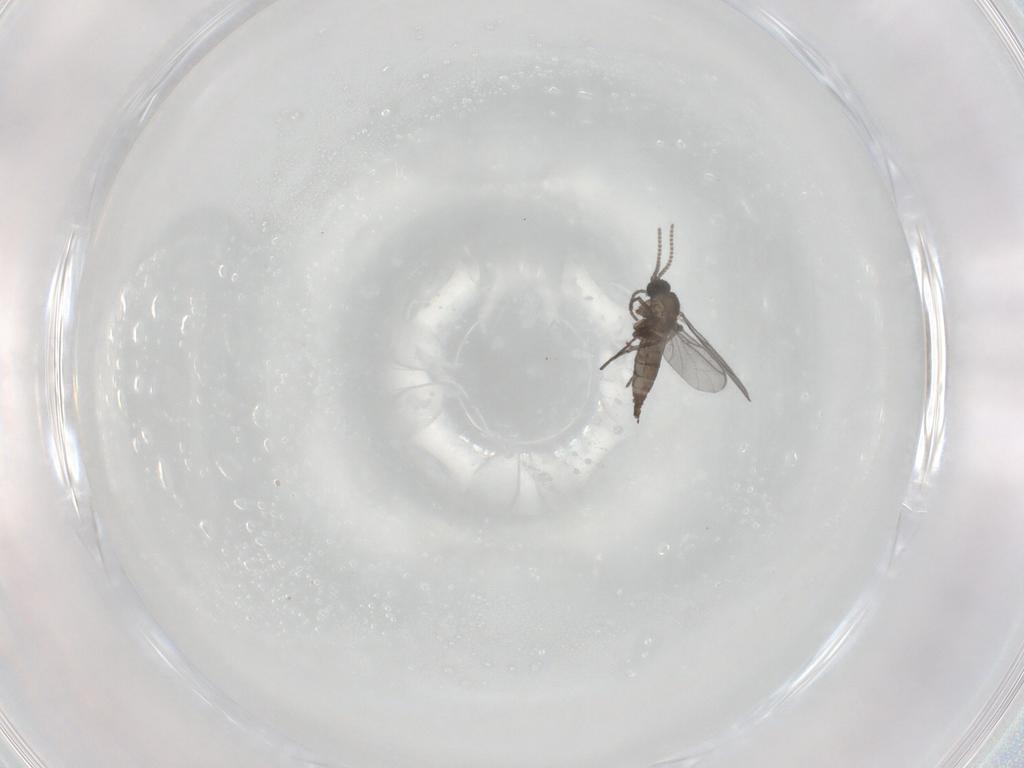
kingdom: Animalia
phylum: Arthropoda
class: Insecta
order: Diptera
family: Cecidomyiidae
